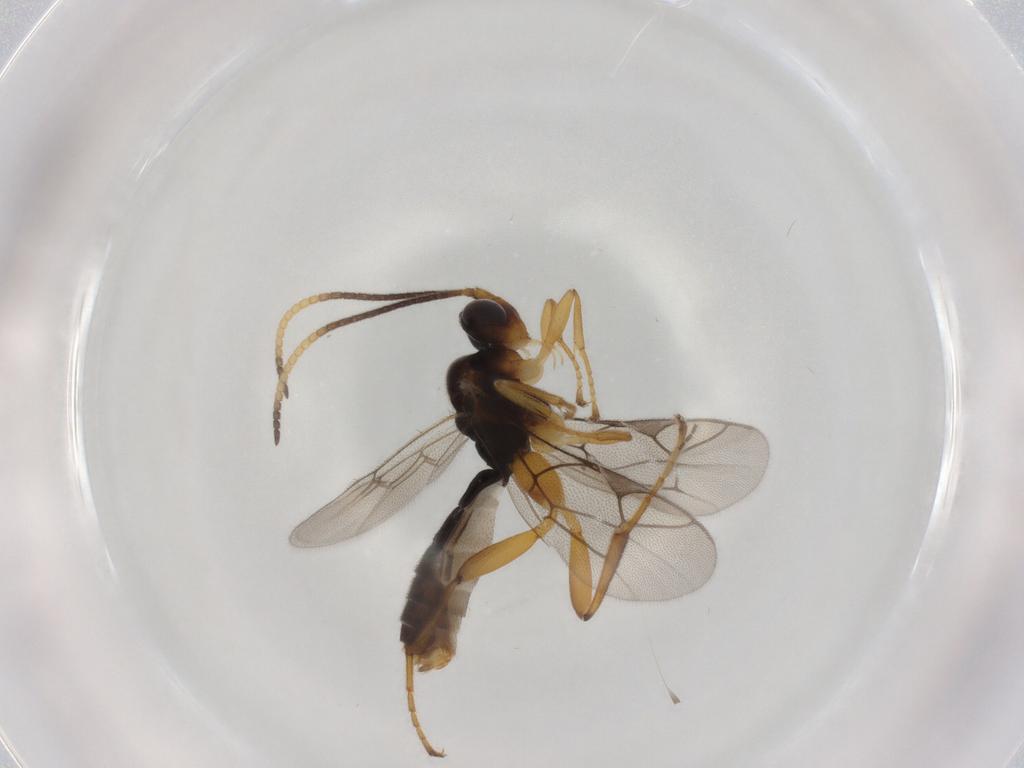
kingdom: Animalia
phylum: Arthropoda
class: Insecta
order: Hymenoptera
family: Ichneumonidae
